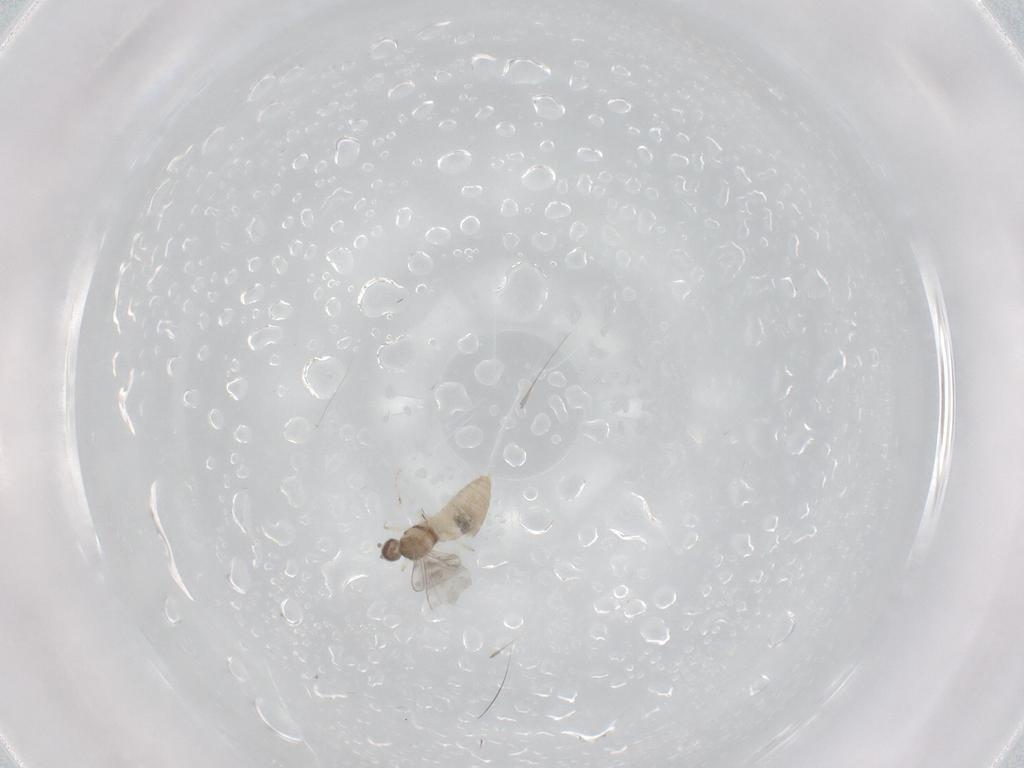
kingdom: Animalia
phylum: Arthropoda
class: Insecta
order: Diptera
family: Cecidomyiidae
